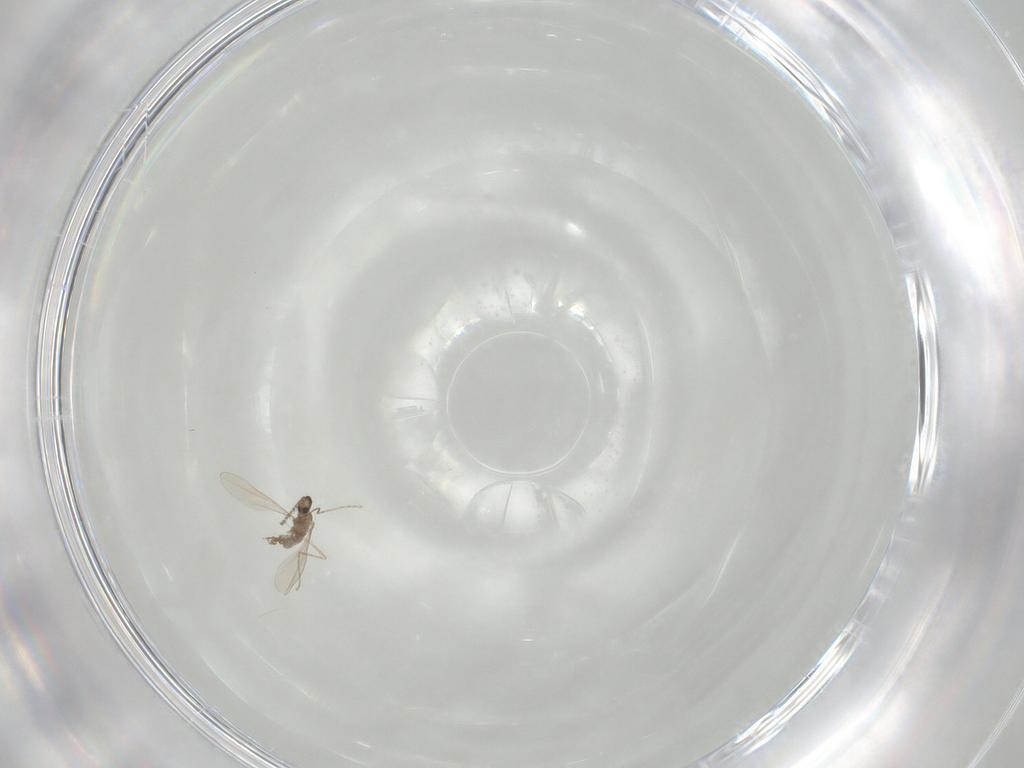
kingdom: Animalia
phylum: Arthropoda
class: Insecta
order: Diptera
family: Cecidomyiidae
